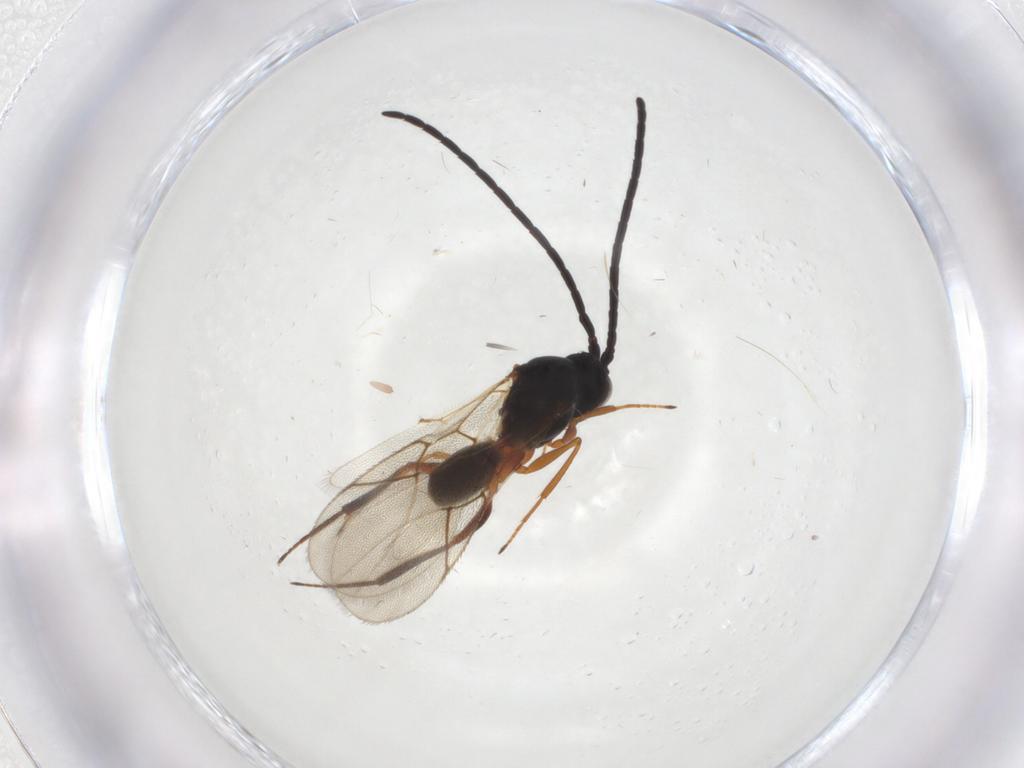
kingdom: Animalia
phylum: Arthropoda
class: Insecta
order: Hymenoptera
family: Figitidae
